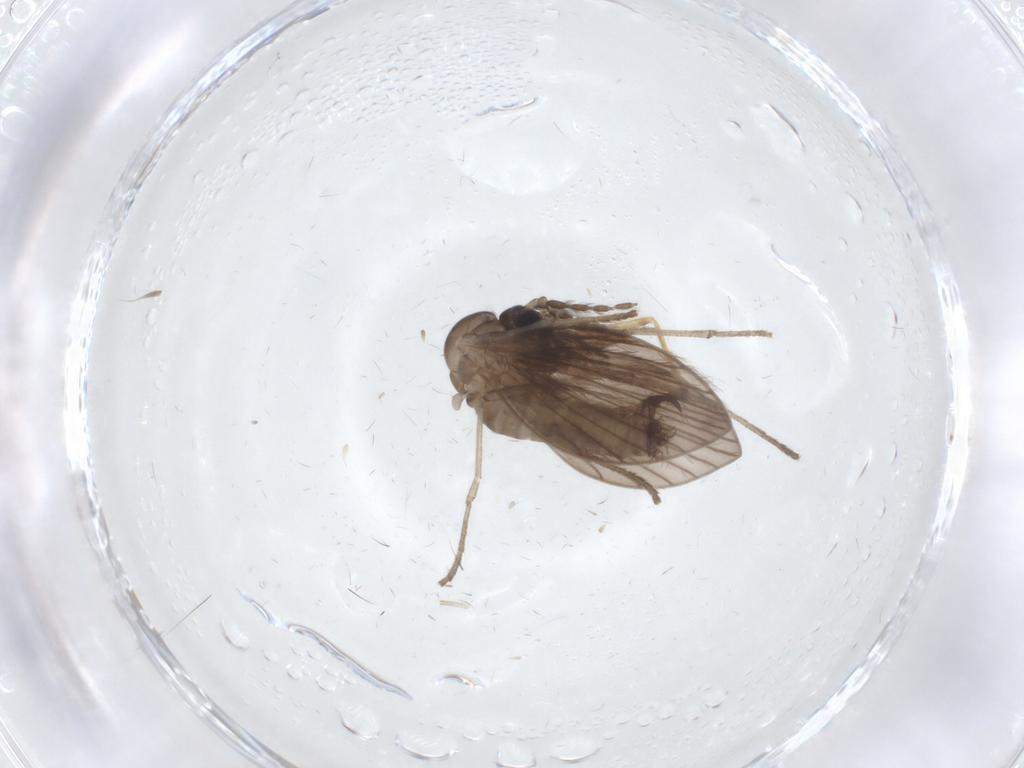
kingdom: Animalia
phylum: Arthropoda
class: Insecta
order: Diptera
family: Psychodidae
